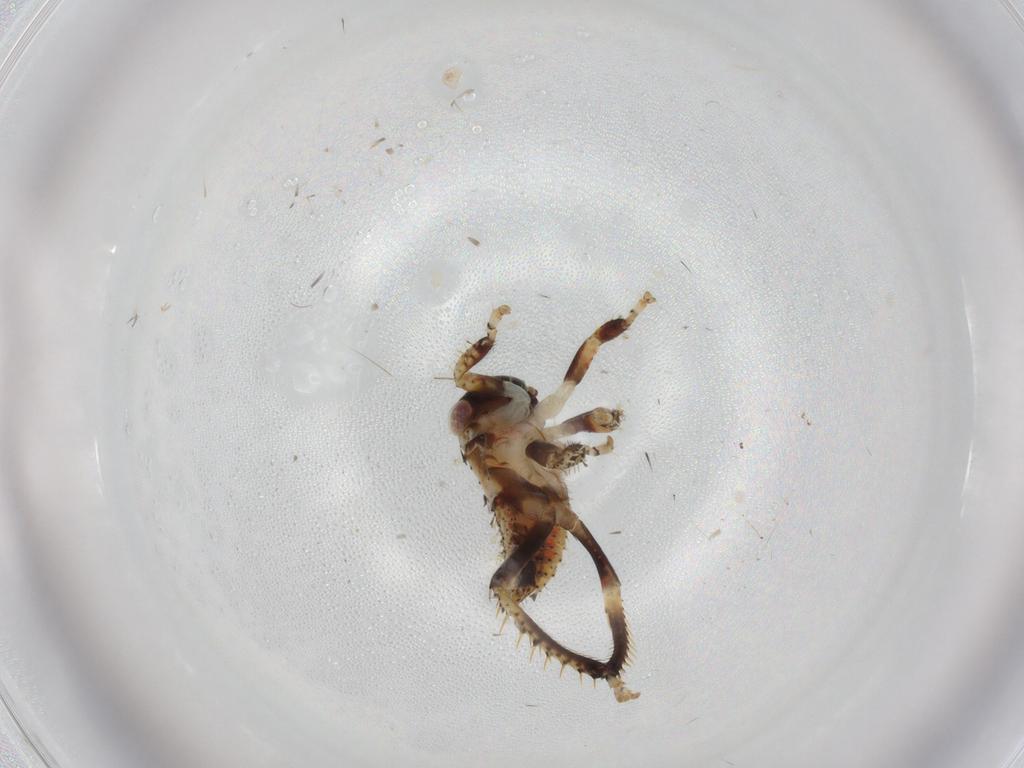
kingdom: Animalia
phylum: Arthropoda
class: Insecta
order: Hemiptera
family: Cicadellidae
